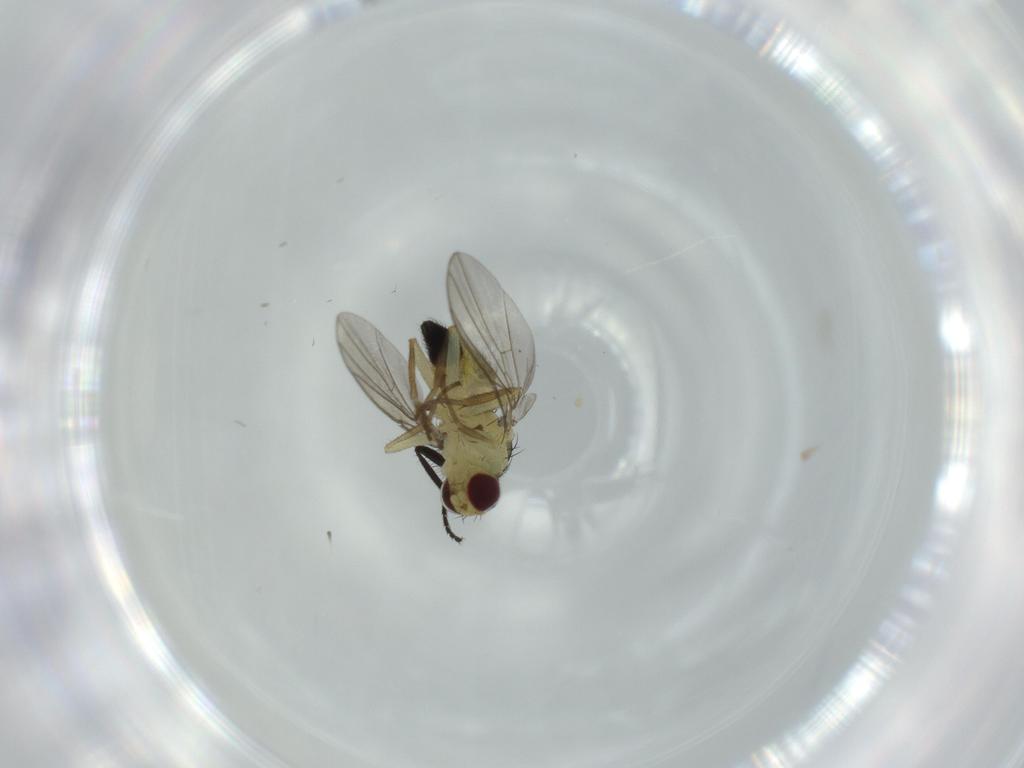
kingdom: Animalia
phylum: Arthropoda
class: Insecta
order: Diptera
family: Agromyzidae
